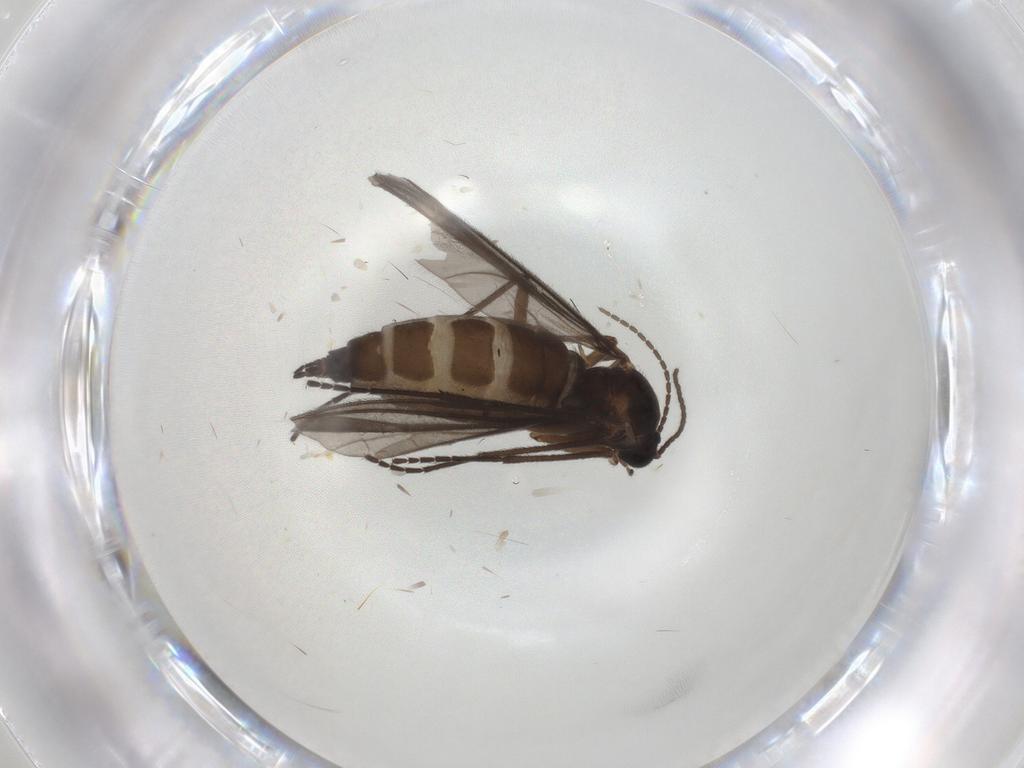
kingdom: Animalia
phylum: Arthropoda
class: Insecta
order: Diptera
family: Sciaridae
